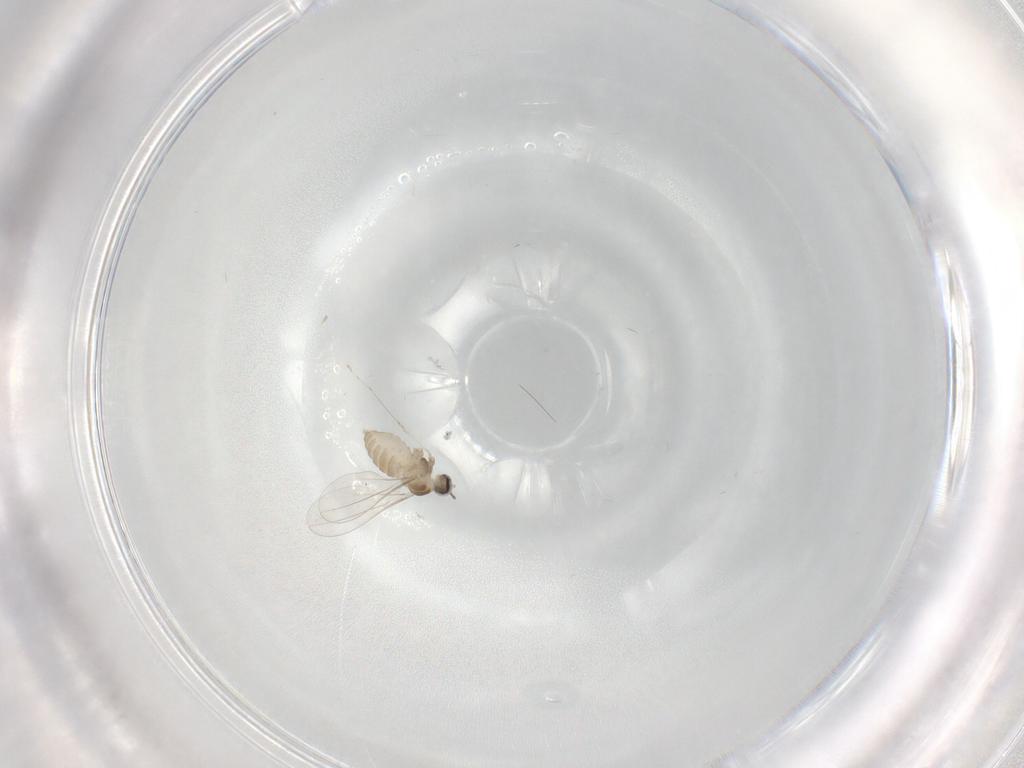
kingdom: Animalia
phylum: Arthropoda
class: Insecta
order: Diptera
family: Cecidomyiidae
